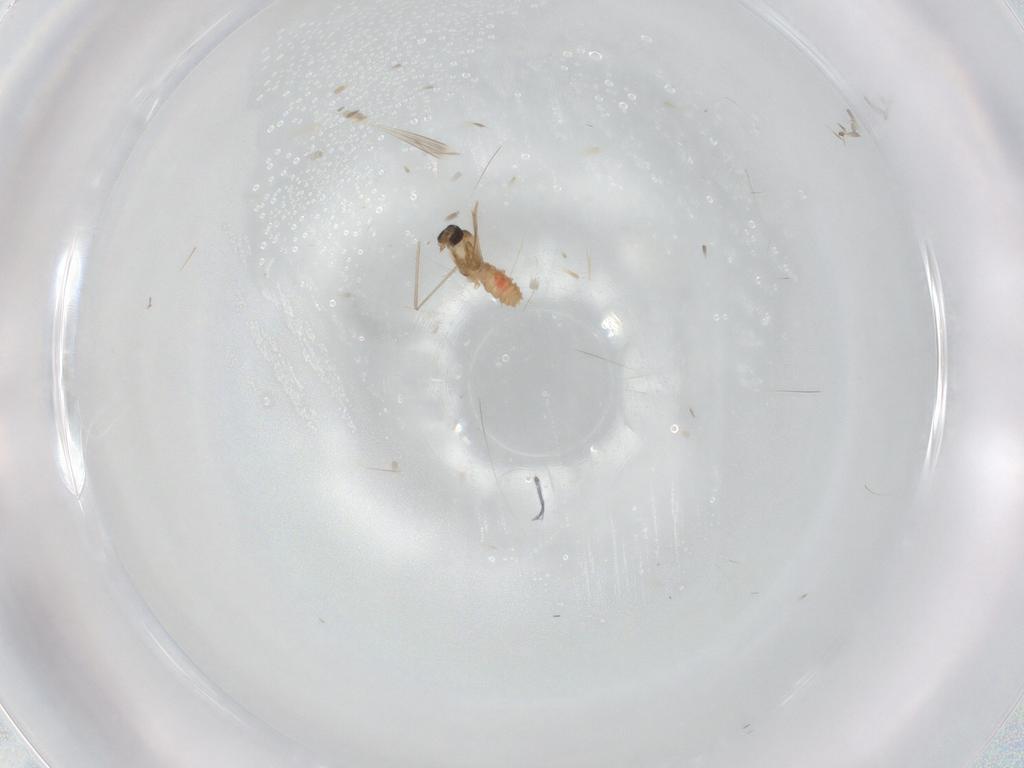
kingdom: Animalia
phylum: Arthropoda
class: Insecta
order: Diptera
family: Cecidomyiidae
